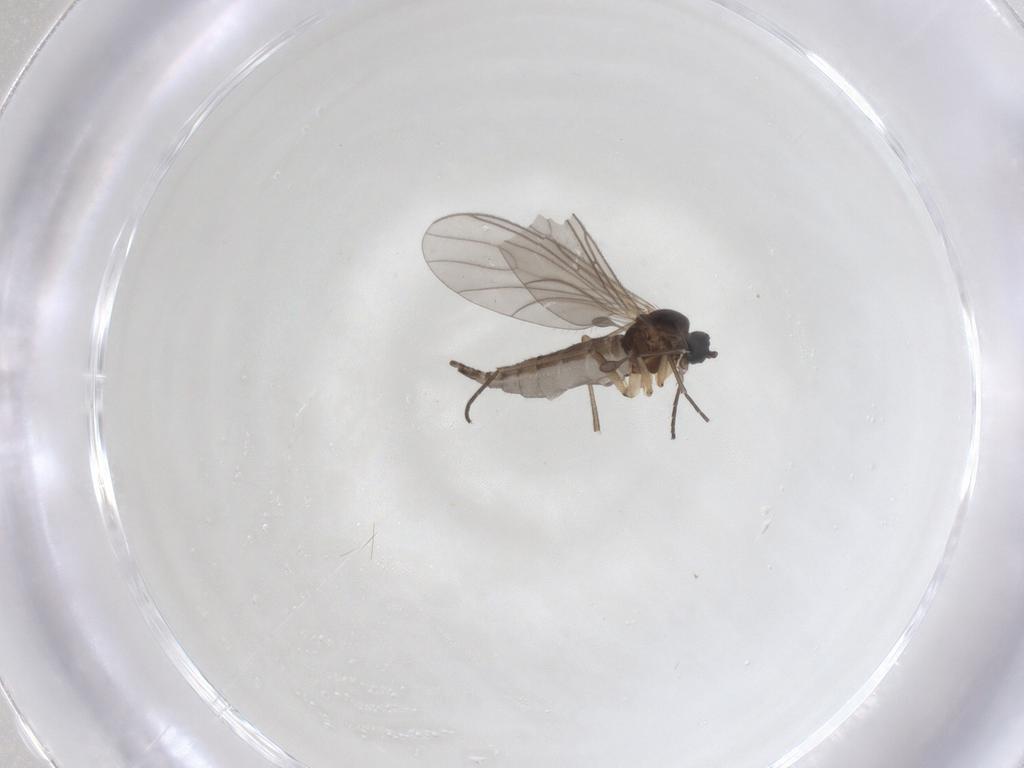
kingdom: Animalia
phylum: Arthropoda
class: Insecta
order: Diptera
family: Sciaridae
